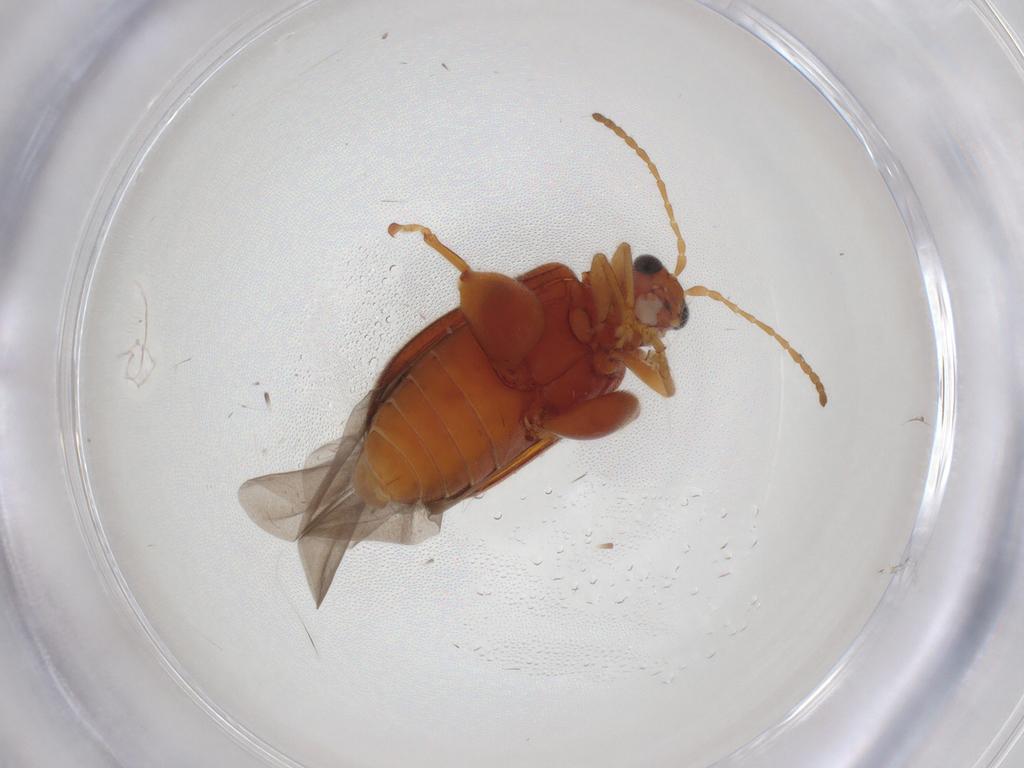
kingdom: Animalia
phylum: Arthropoda
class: Insecta
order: Coleoptera
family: Chrysomelidae
